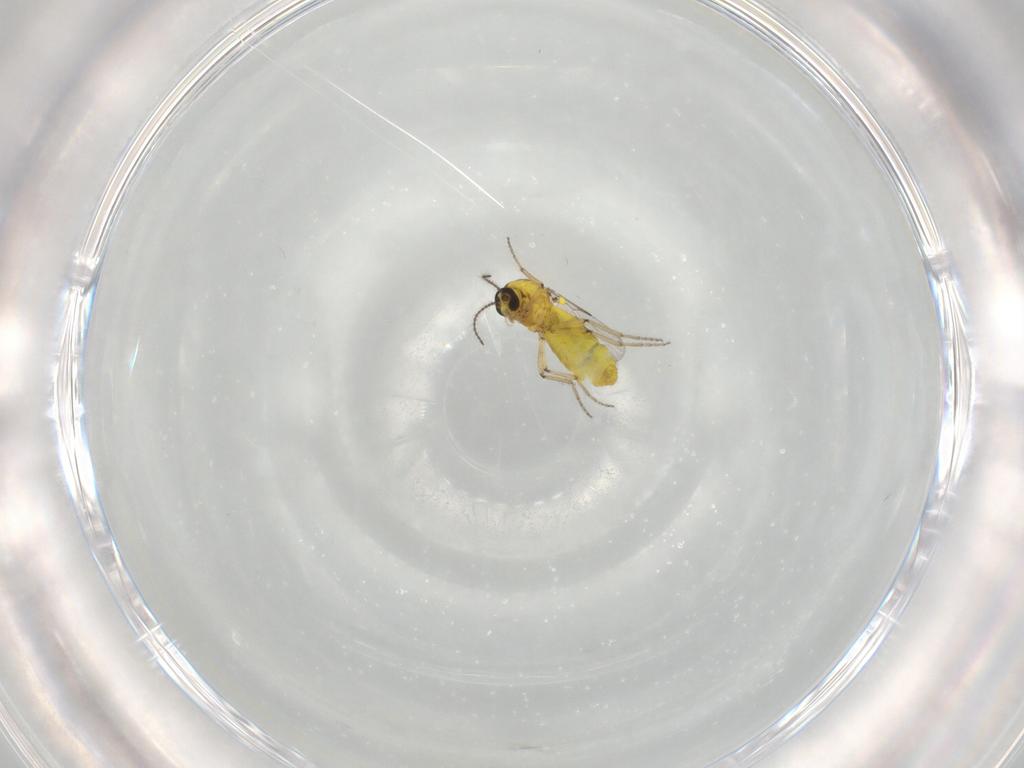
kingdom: Animalia
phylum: Arthropoda
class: Insecta
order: Diptera
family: Ceratopogonidae
